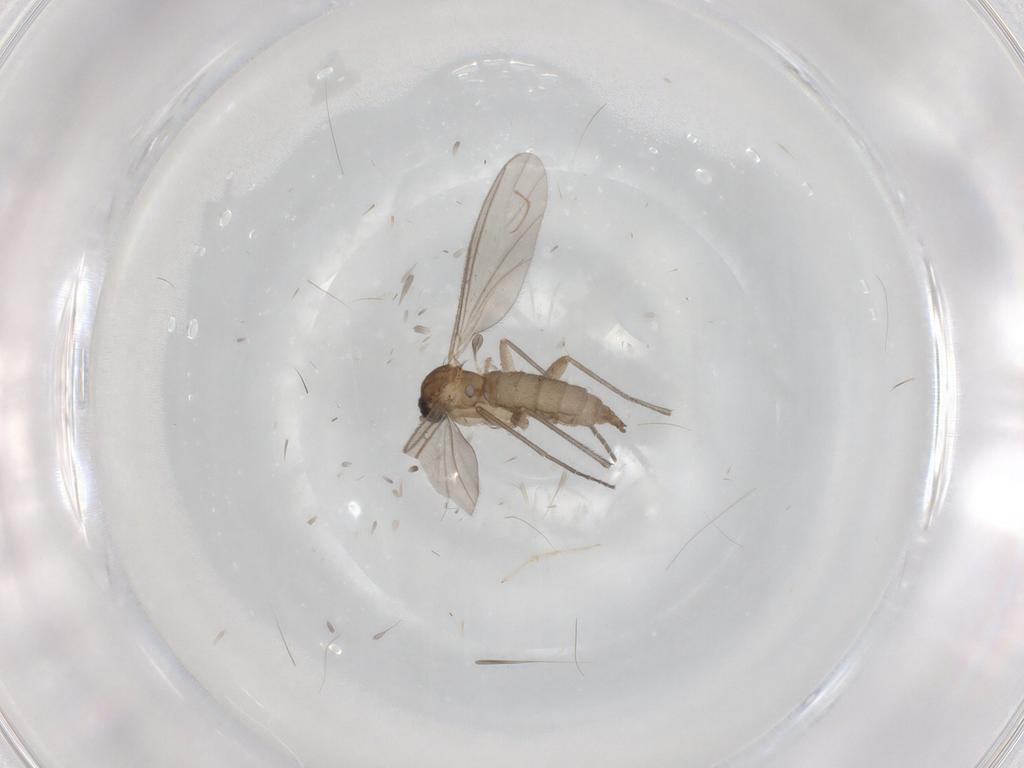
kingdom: Animalia
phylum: Arthropoda
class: Insecta
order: Diptera
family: Sciaridae
